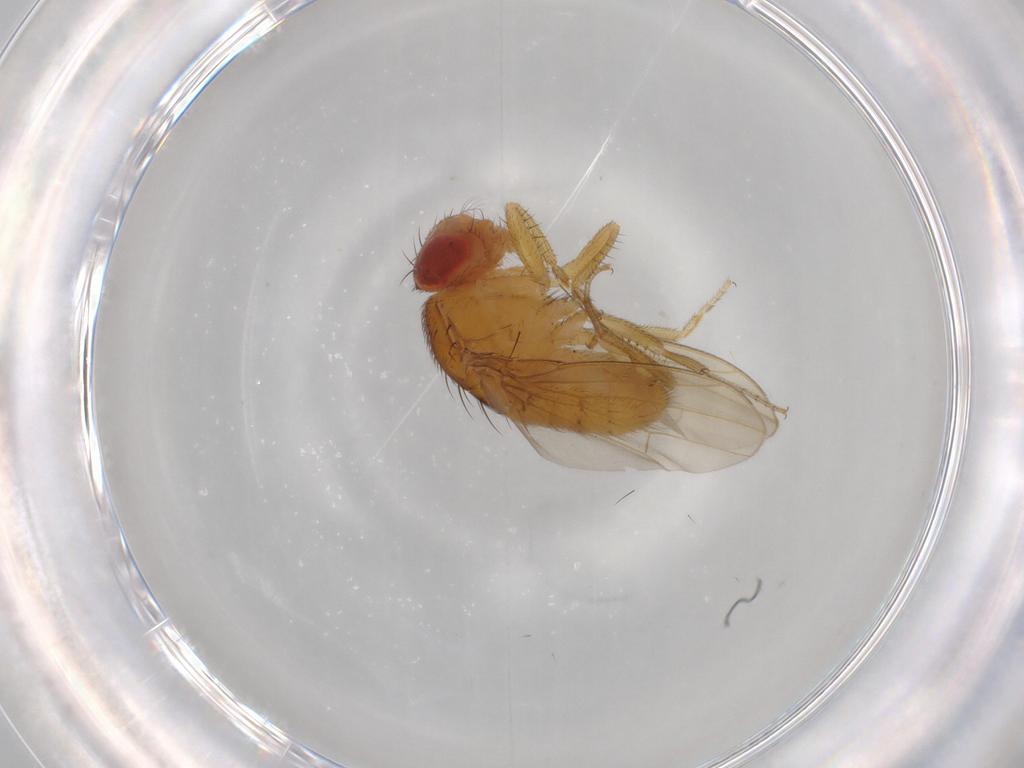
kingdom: Animalia
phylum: Arthropoda
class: Insecta
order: Diptera
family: Drosophilidae
